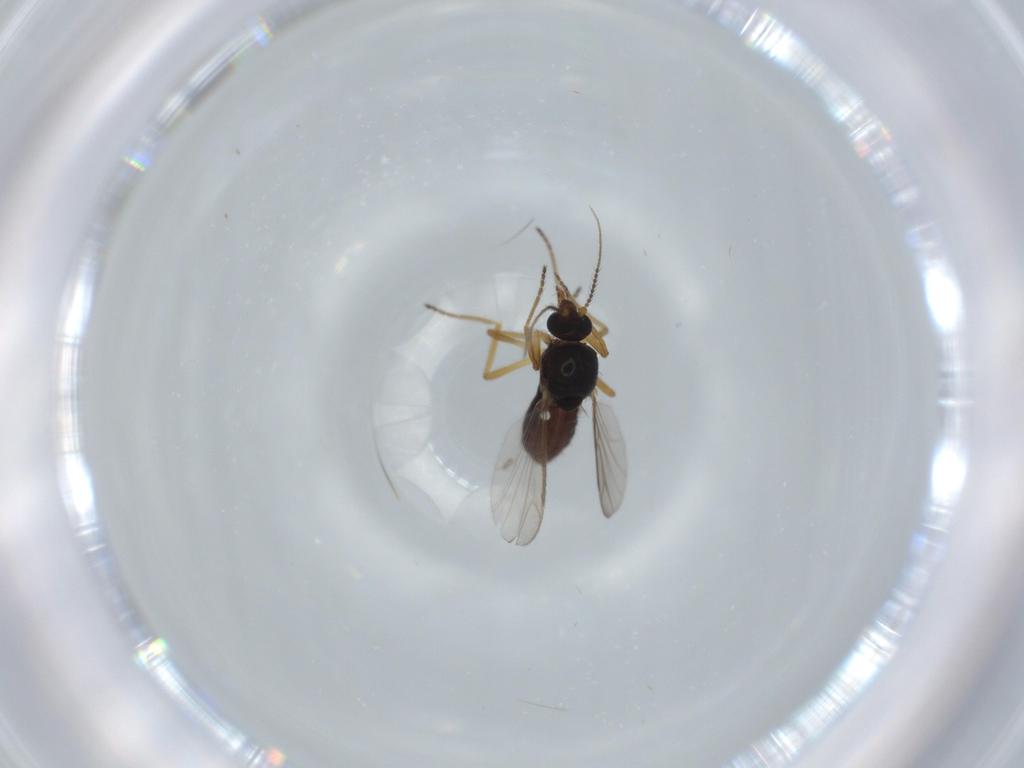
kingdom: Animalia
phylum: Arthropoda
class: Insecta
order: Diptera
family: Ceratopogonidae
